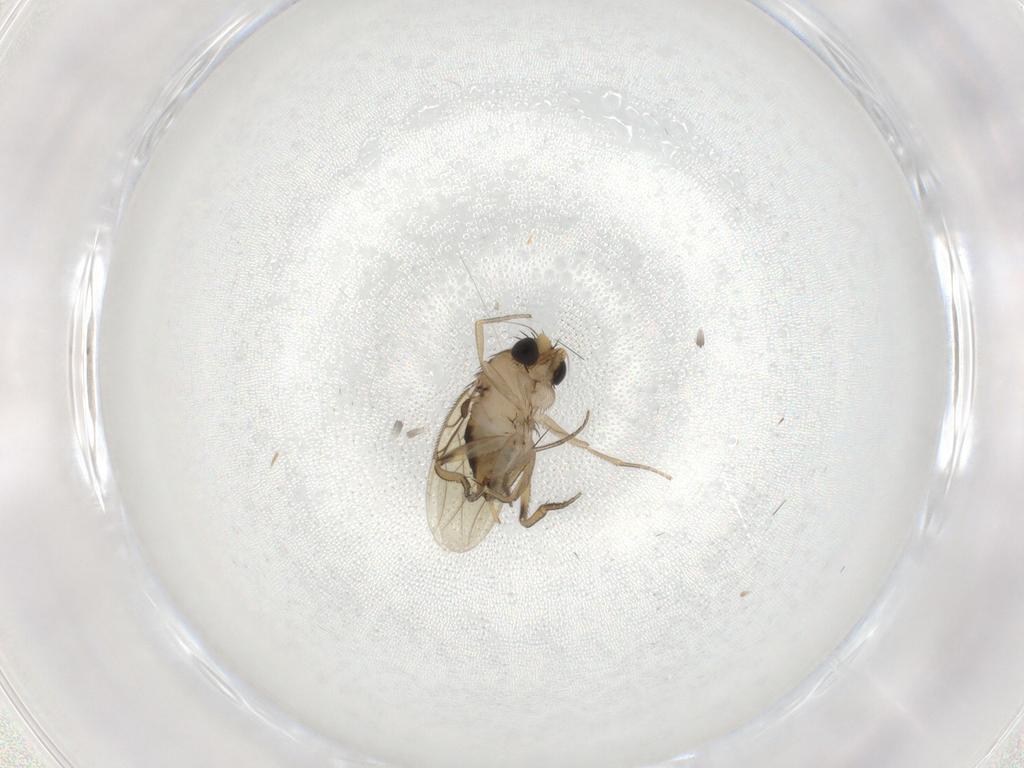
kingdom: Animalia
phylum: Arthropoda
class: Insecta
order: Diptera
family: Phoridae
